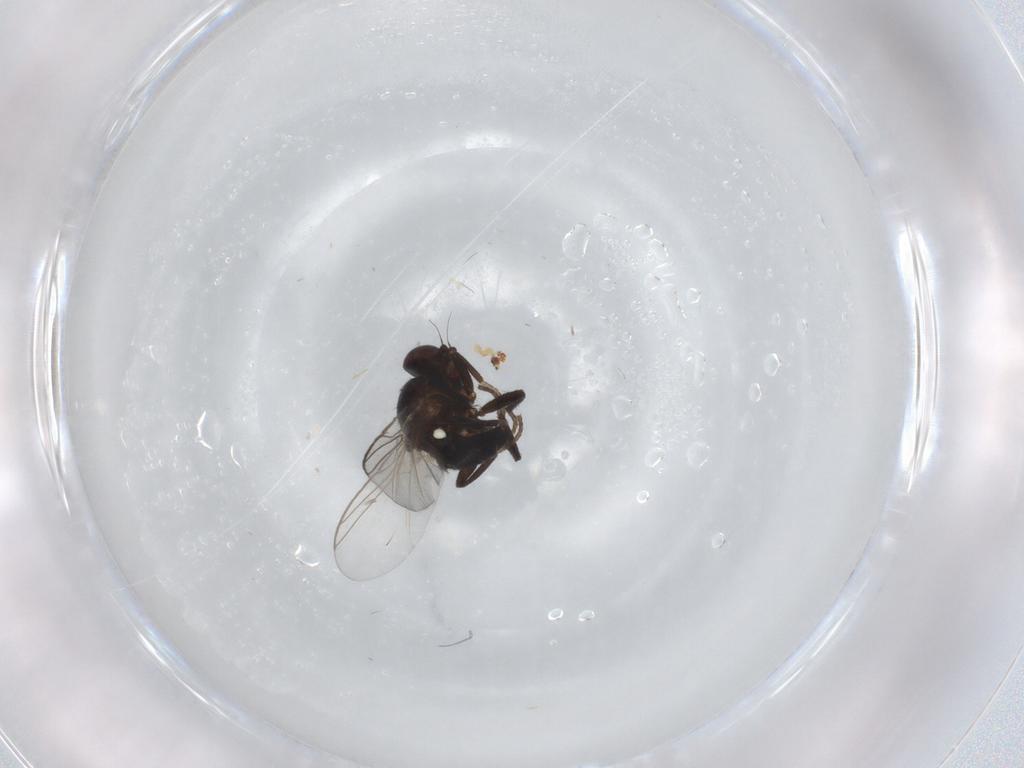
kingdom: Animalia
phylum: Arthropoda
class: Insecta
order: Diptera
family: Agromyzidae
